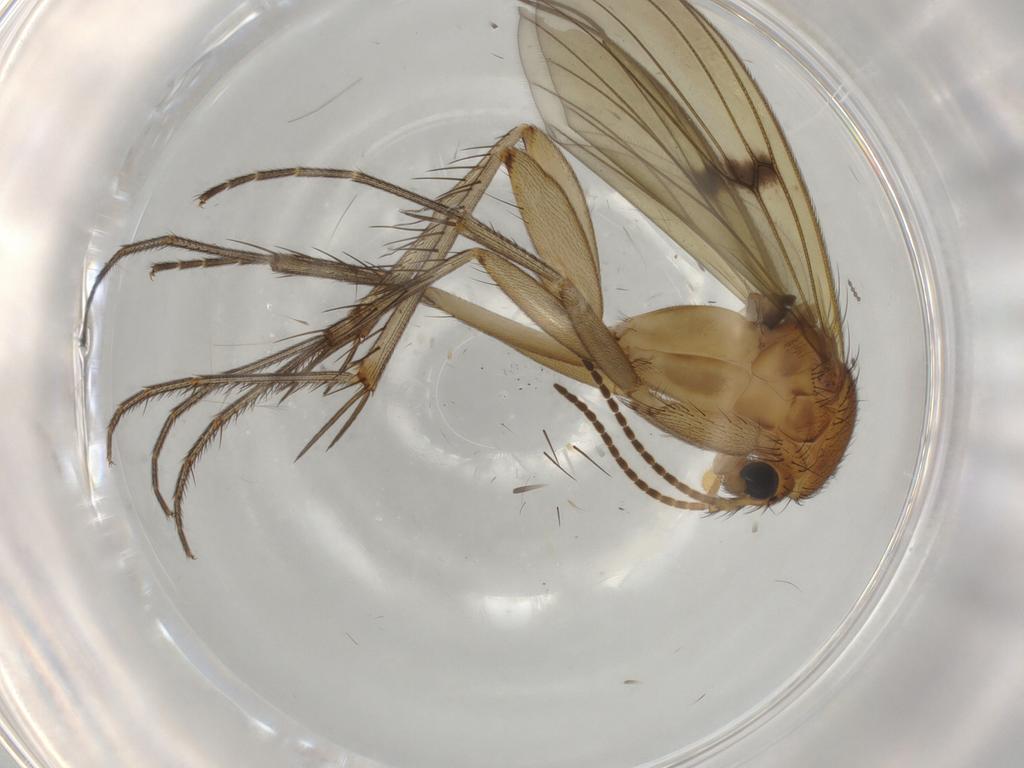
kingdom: Animalia
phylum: Arthropoda
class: Insecta
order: Diptera
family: Mycetophilidae
